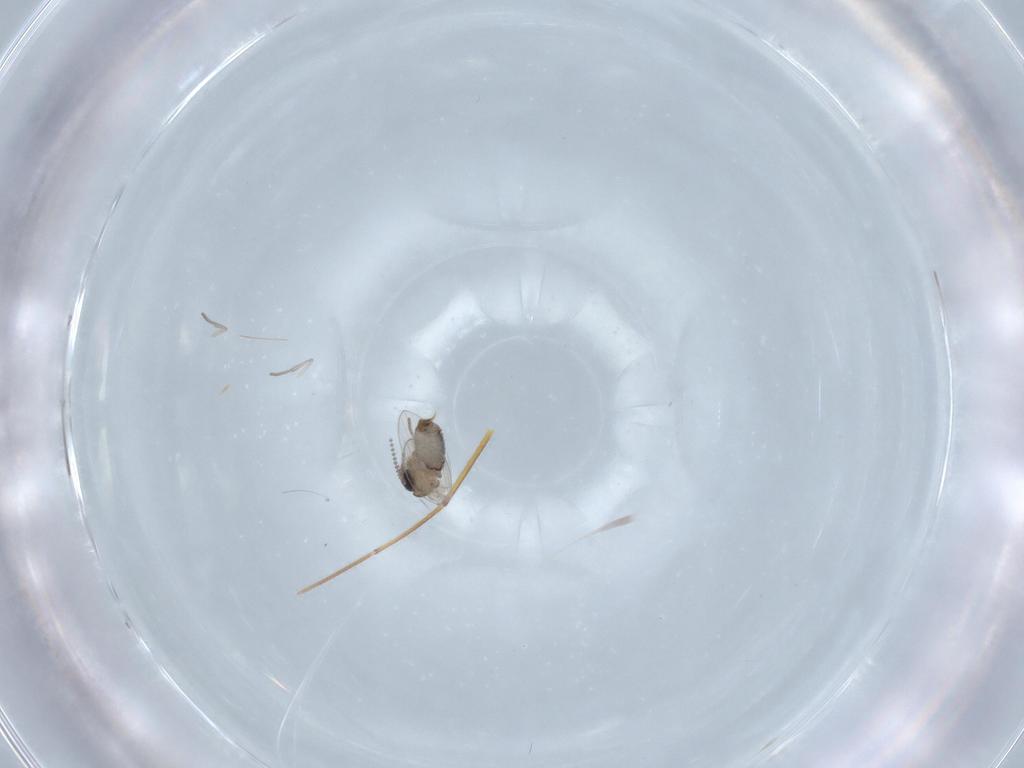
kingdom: Animalia
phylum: Arthropoda
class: Insecta
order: Diptera
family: Psychodidae
